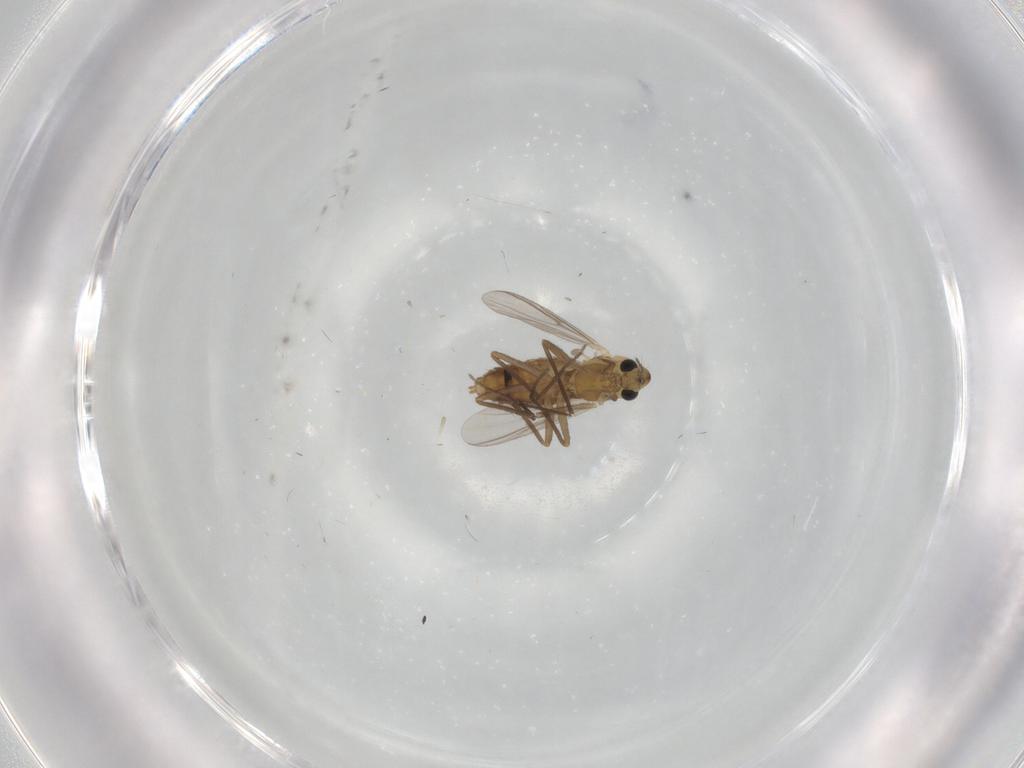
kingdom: Animalia
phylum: Arthropoda
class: Insecta
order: Diptera
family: Chironomidae
